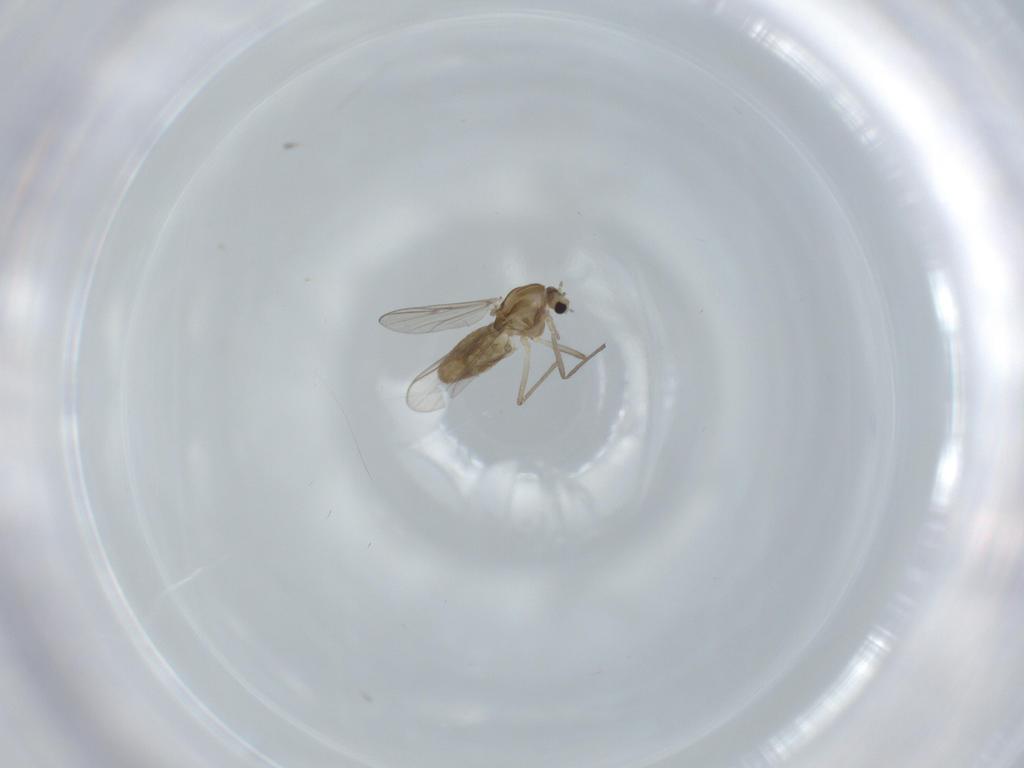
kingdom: Animalia
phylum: Arthropoda
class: Insecta
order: Diptera
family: Chironomidae
